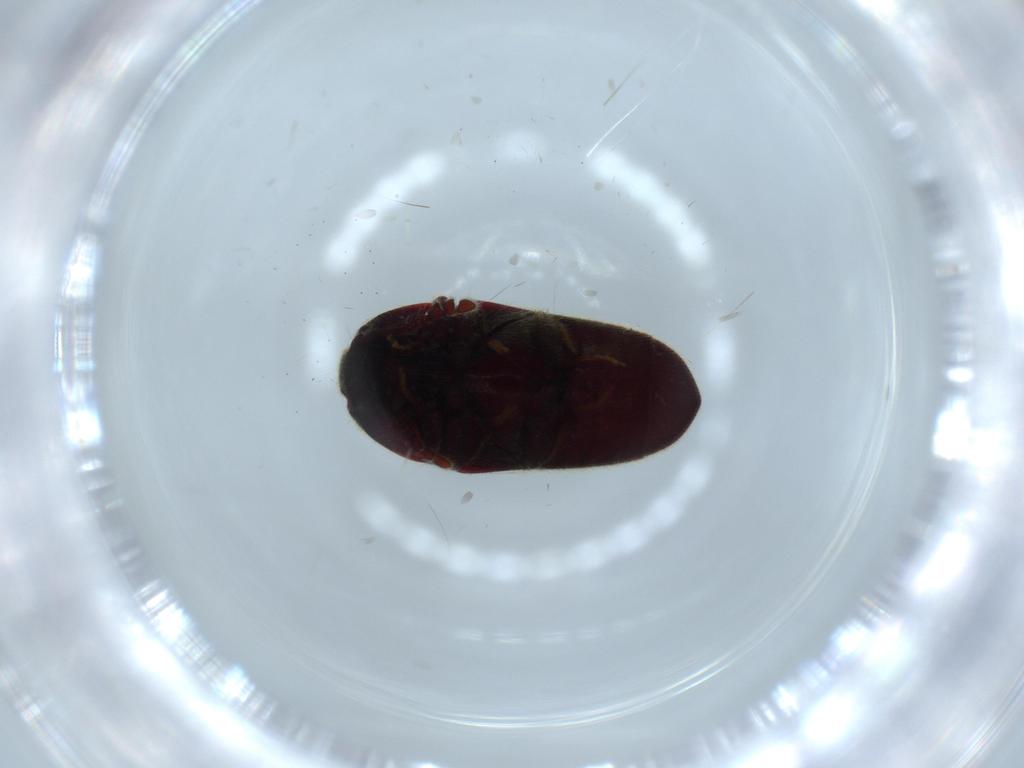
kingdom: Animalia
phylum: Arthropoda
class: Insecta
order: Coleoptera
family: Throscidae
